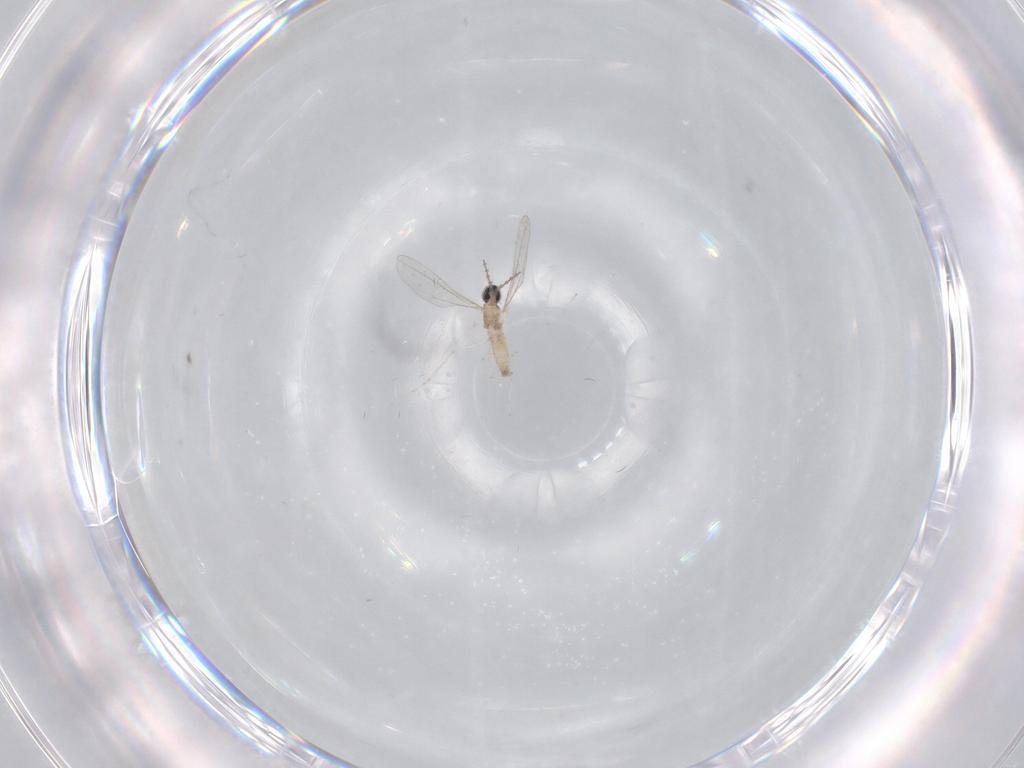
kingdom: Animalia
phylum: Arthropoda
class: Insecta
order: Diptera
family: Cecidomyiidae
